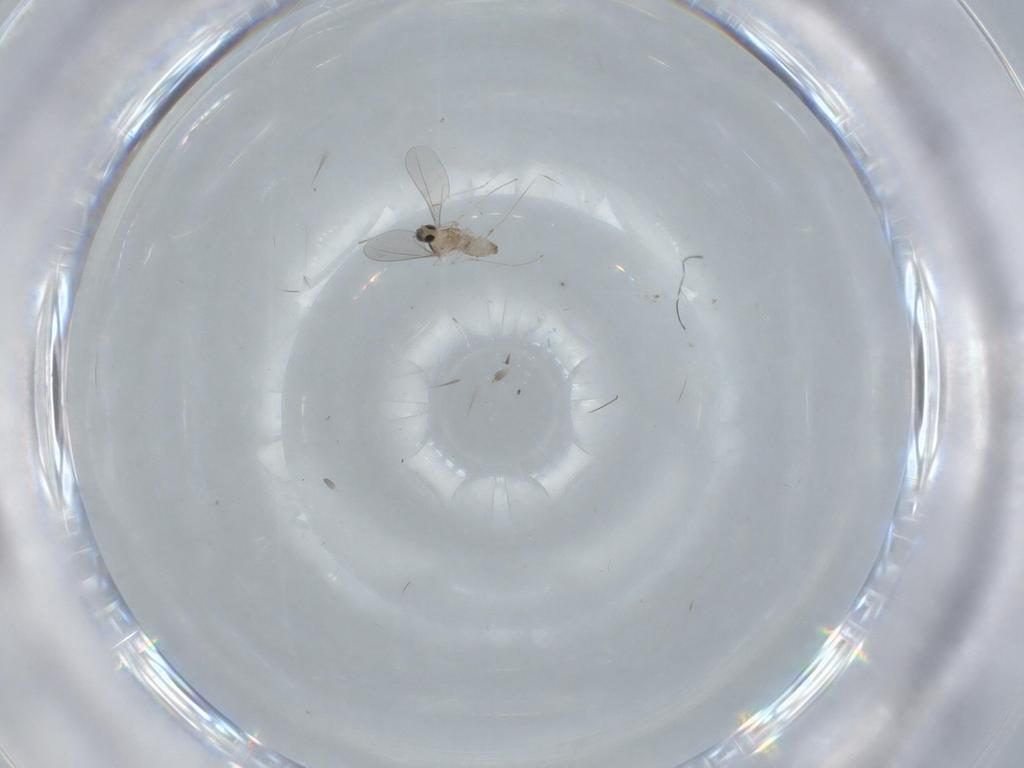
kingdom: Animalia
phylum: Arthropoda
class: Insecta
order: Diptera
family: Cecidomyiidae
